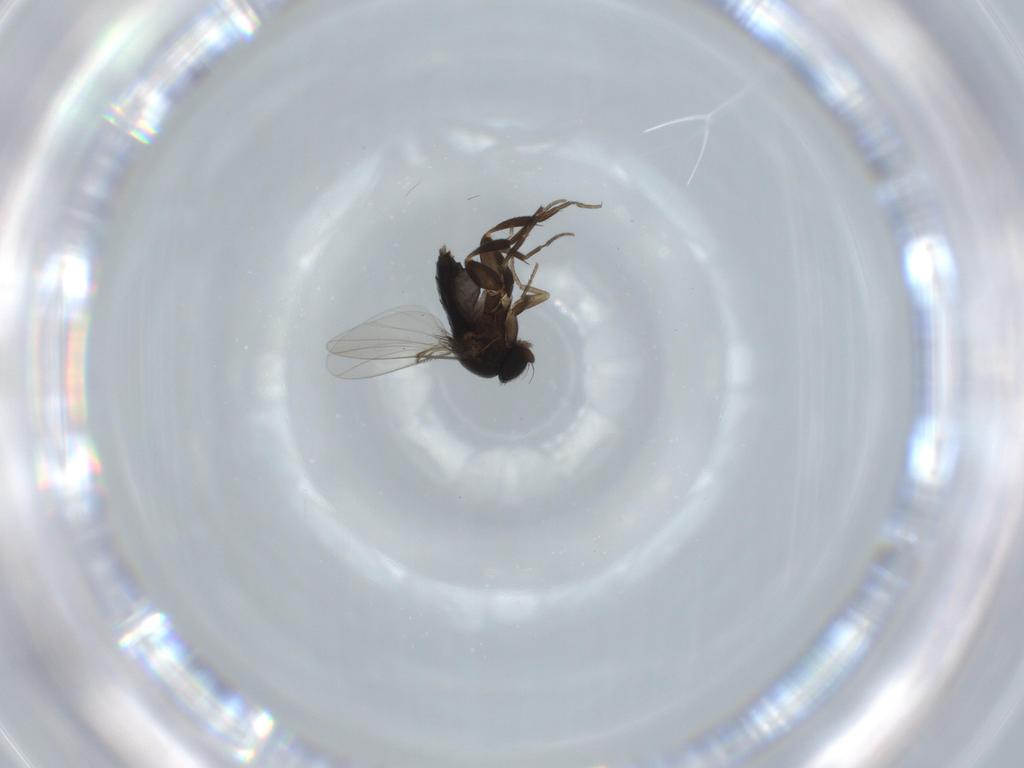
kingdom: Animalia
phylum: Arthropoda
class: Insecta
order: Diptera
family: Phoridae
